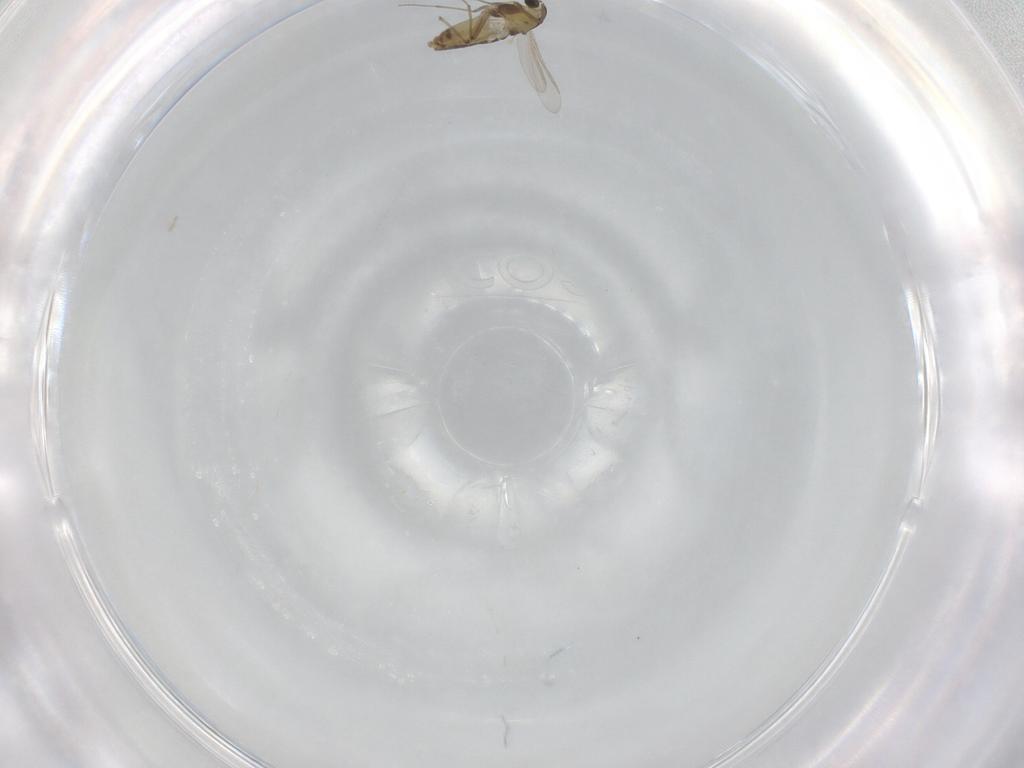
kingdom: Animalia
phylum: Arthropoda
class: Insecta
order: Diptera
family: Chironomidae
